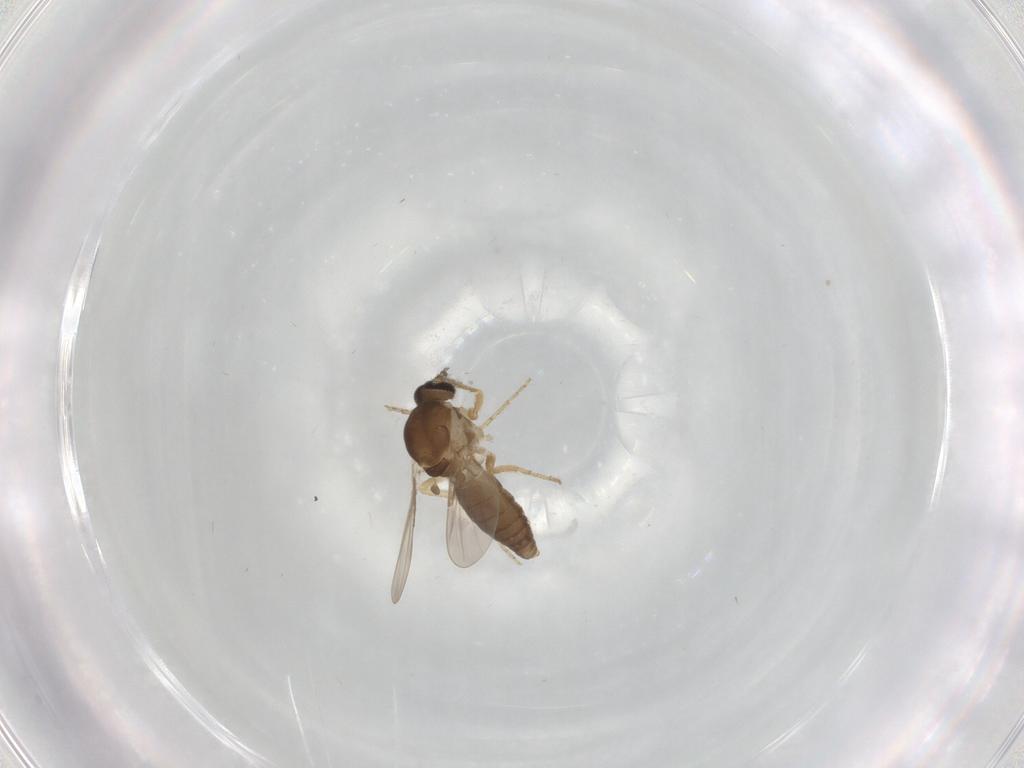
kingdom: Animalia
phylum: Arthropoda
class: Insecta
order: Diptera
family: Ceratopogonidae
